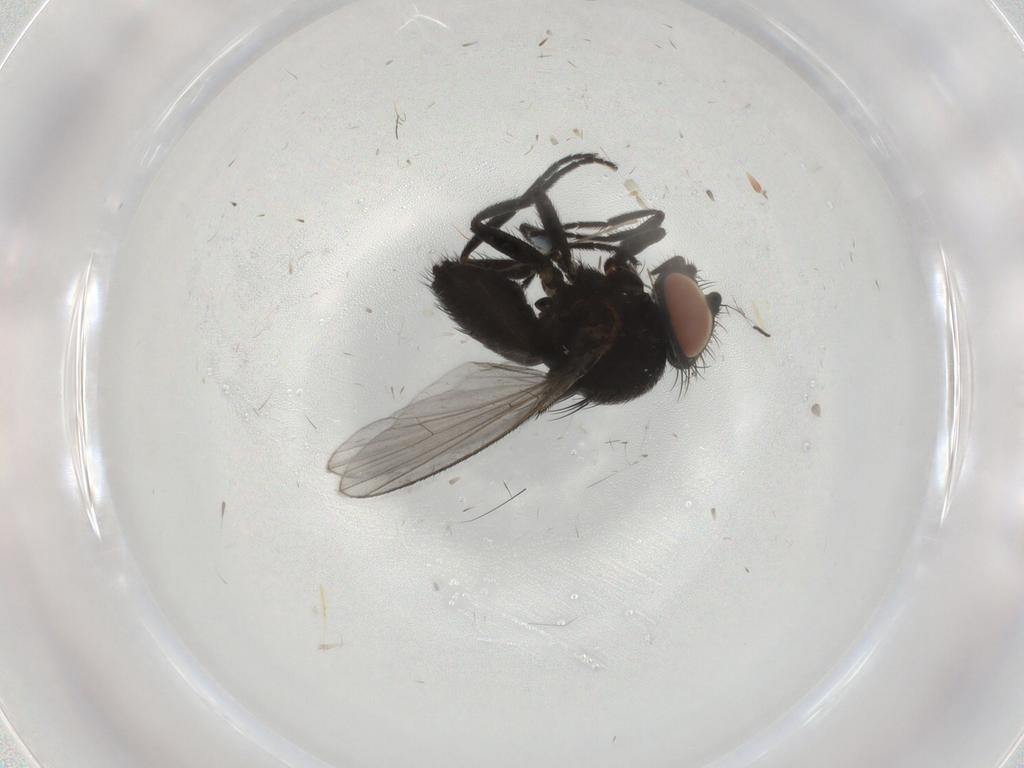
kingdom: Animalia
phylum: Arthropoda
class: Insecta
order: Diptera
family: Milichiidae
